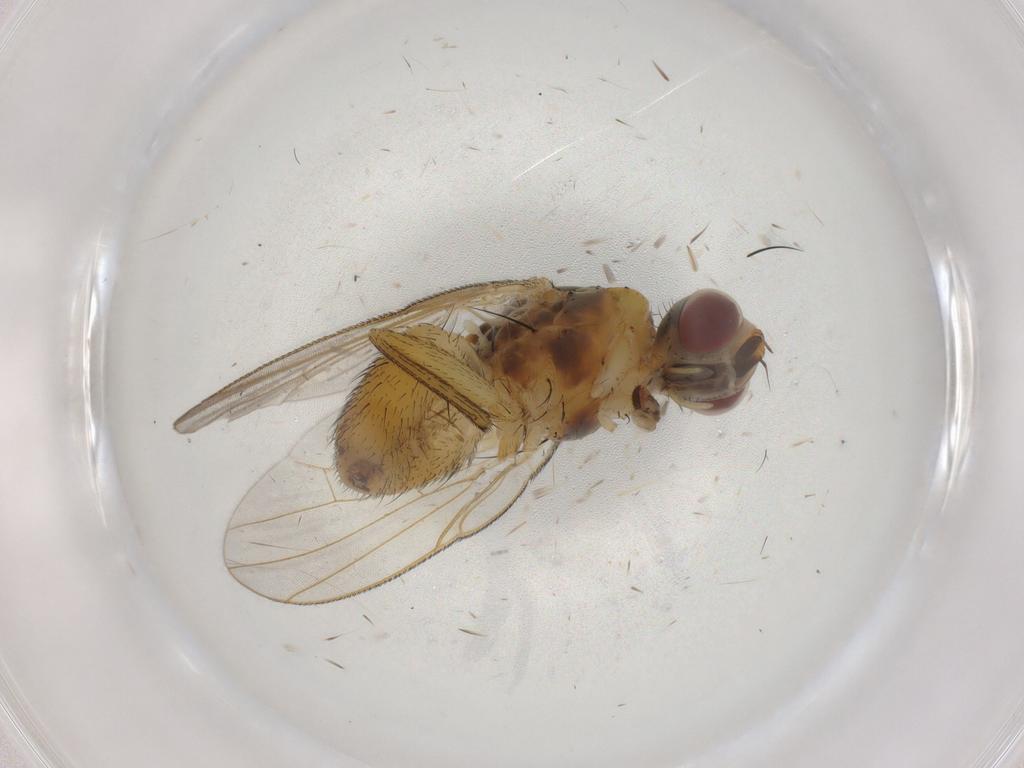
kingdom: Animalia
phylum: Arthropoda
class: Insecta
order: Diptera
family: Muscidae
